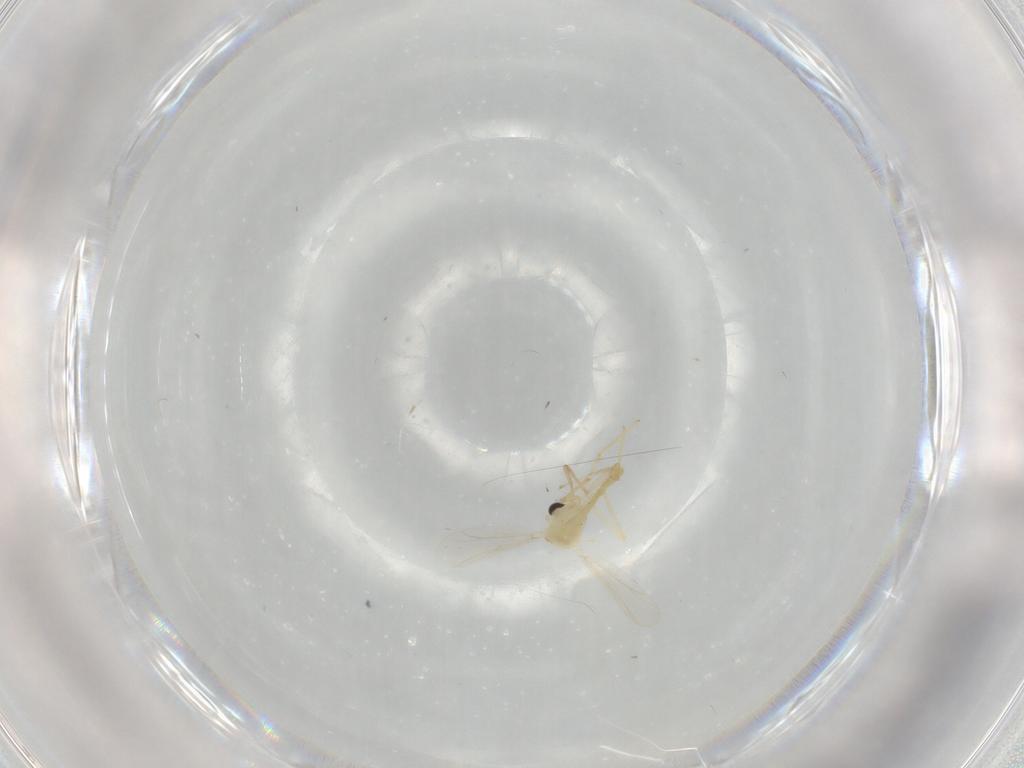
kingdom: Animalia
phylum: Arthropoda
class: Insecta
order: Diptera
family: Chironomidae
